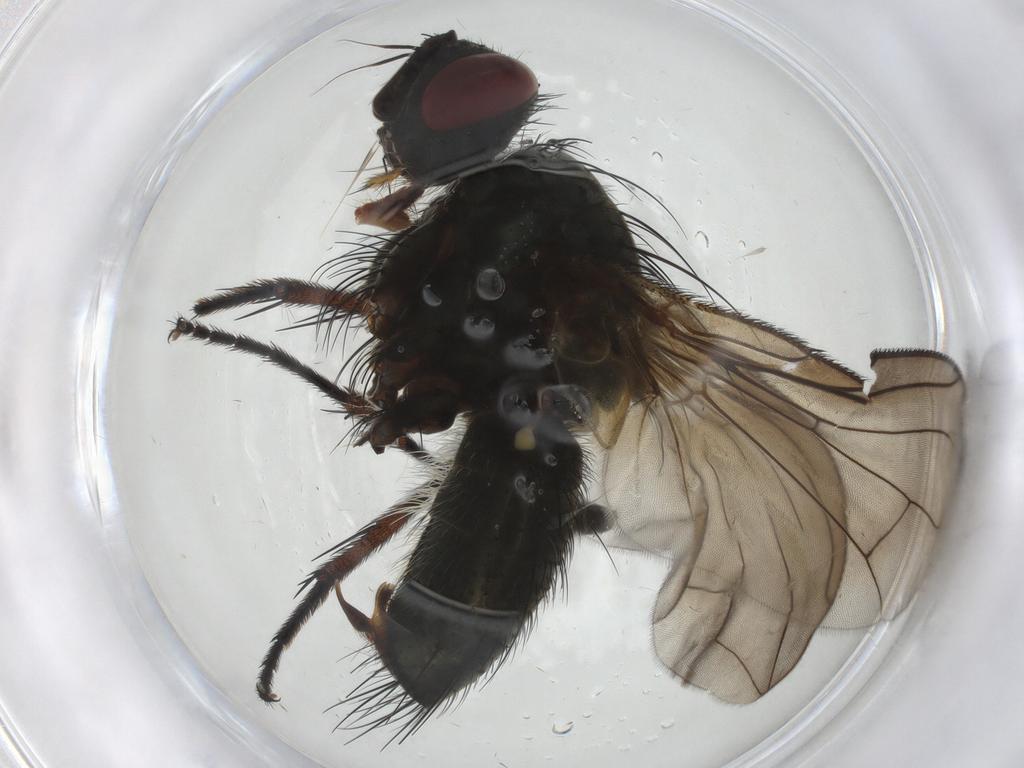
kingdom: Animalia
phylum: Arthropoda
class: Insecta
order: Diptera
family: Tachinidae
